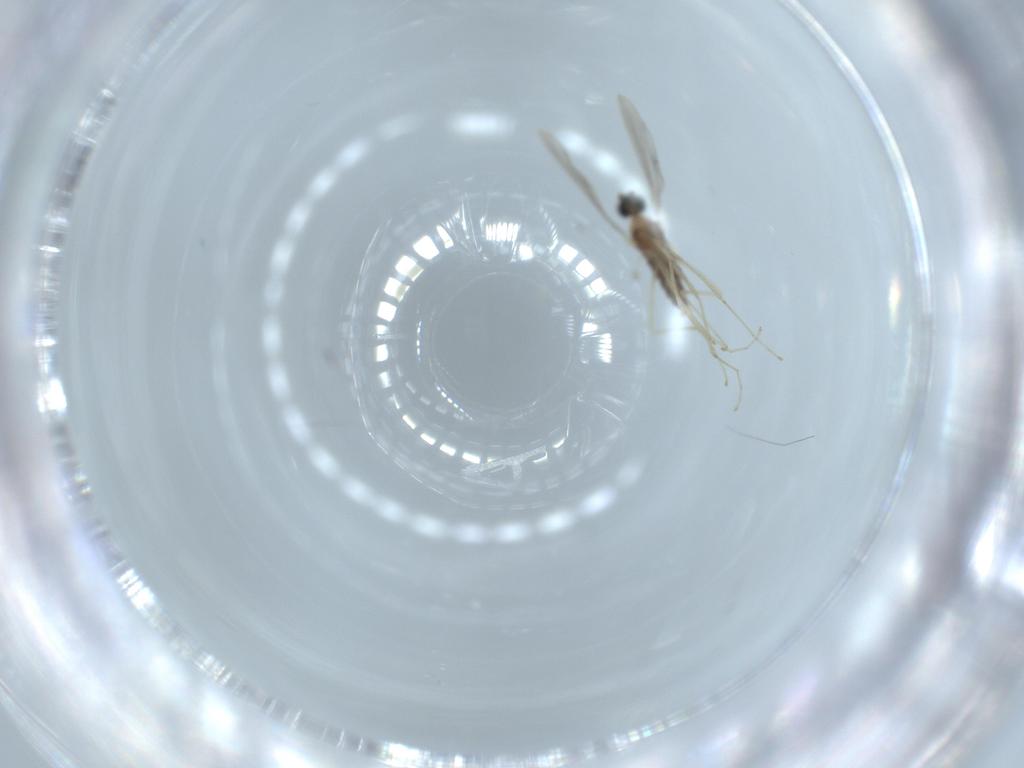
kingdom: Animalia
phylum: Arthropoda
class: Insecta
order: Diptera
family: Cecidomyiidae
